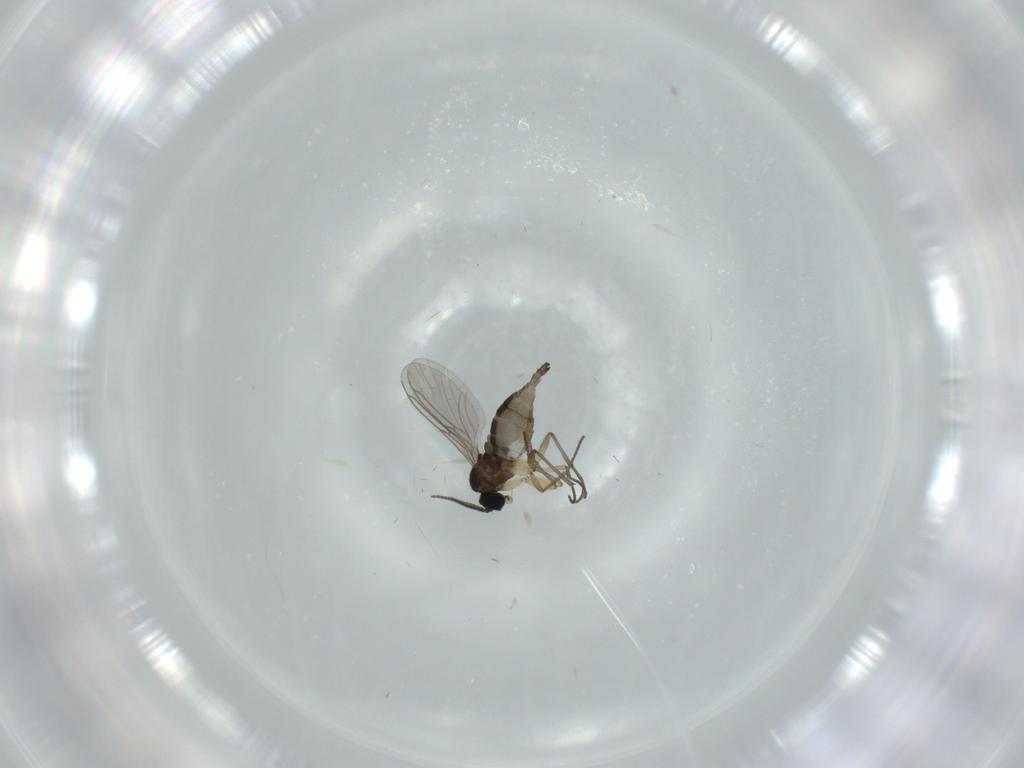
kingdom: Animalia
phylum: Arthropoda
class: Insecta
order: Diptera
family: Sciaridae
